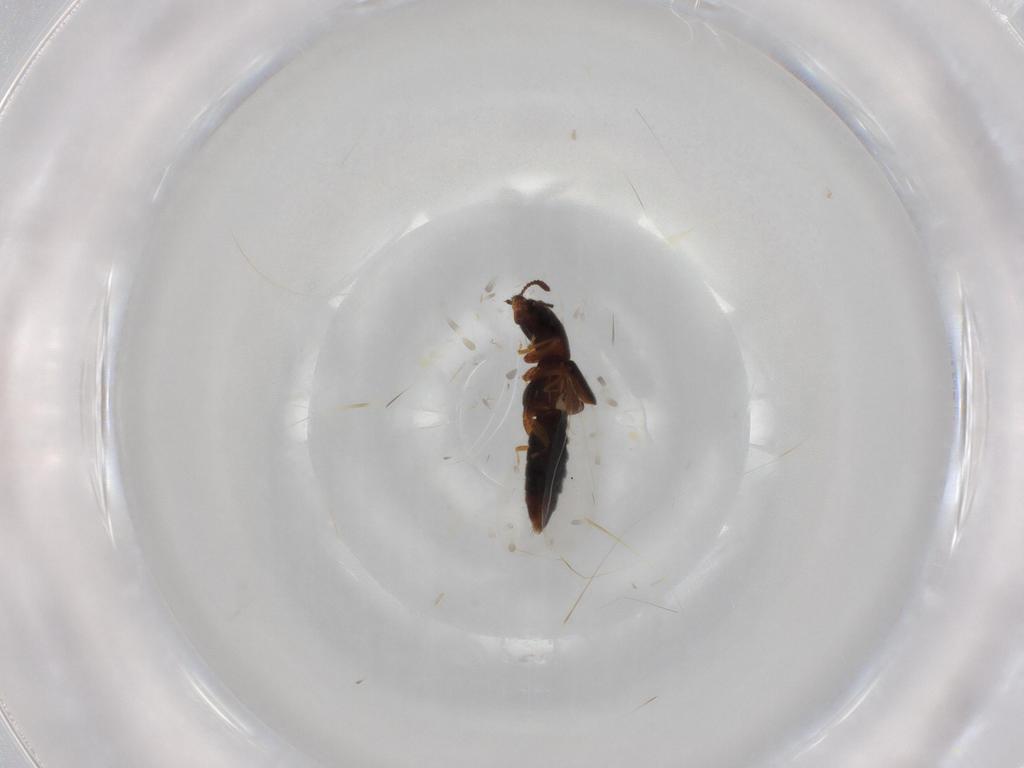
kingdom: Animalia
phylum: Arthropoda
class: Insecta
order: Coleoptera
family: Staphylinidae
